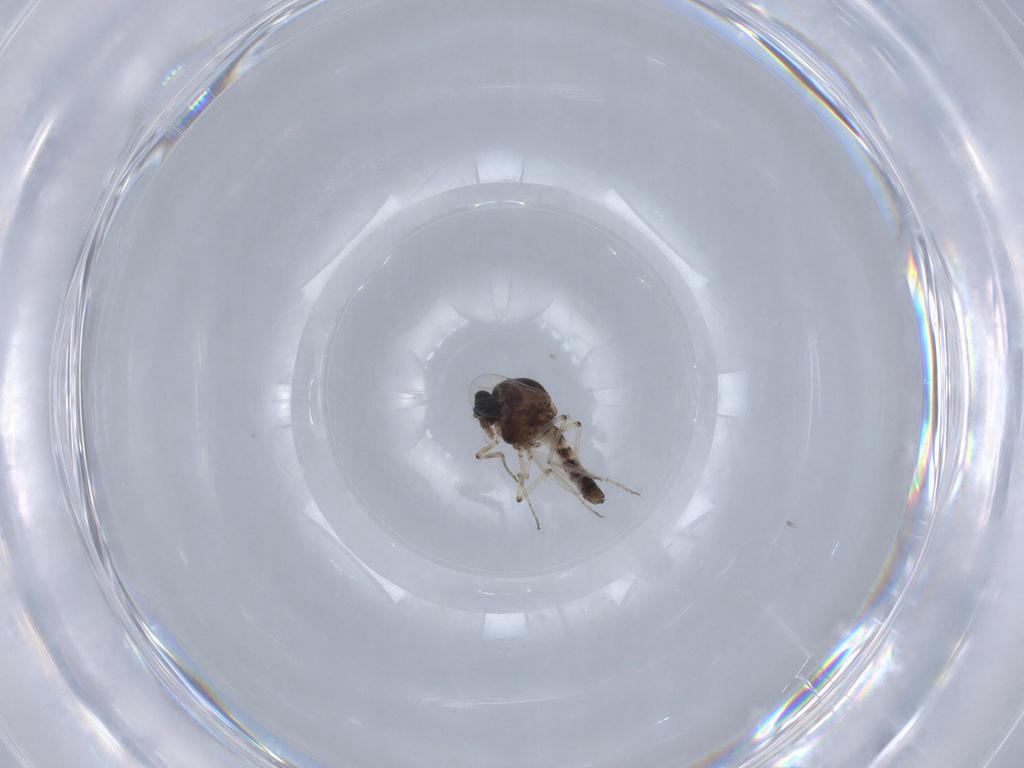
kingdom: Animalia
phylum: Arthropoda
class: Insecta
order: Diptera
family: Ceratopogonidae
